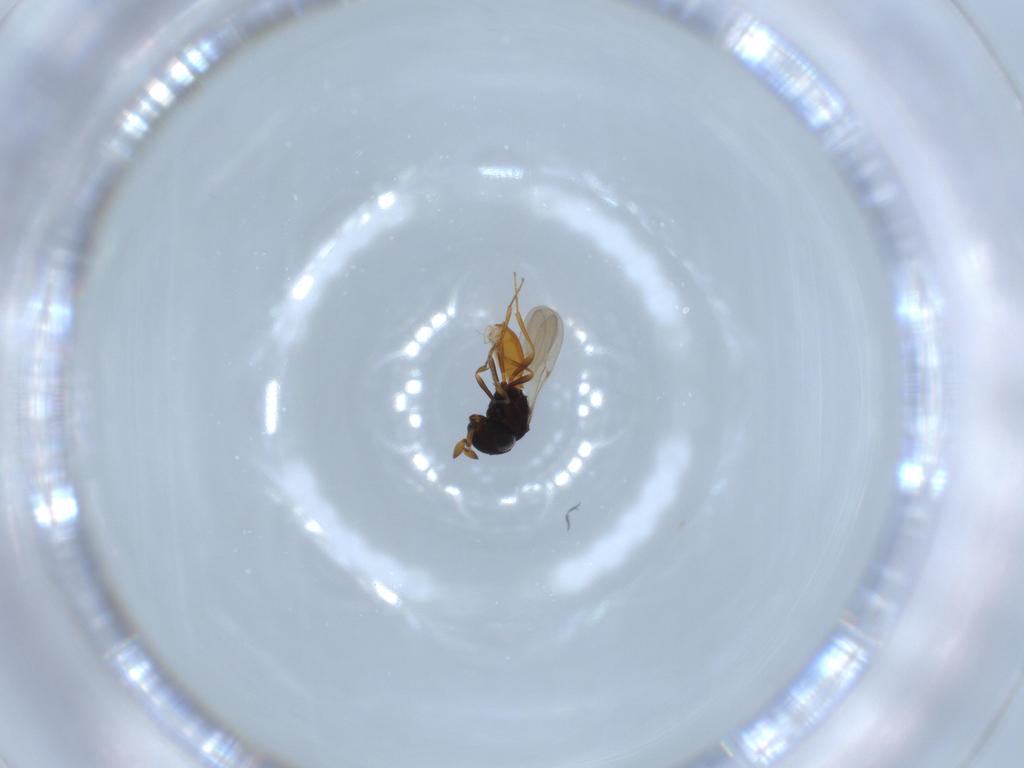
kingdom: Animalia
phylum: Arthropoda
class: Insecta
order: Hymenoptera
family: Scelionidae
